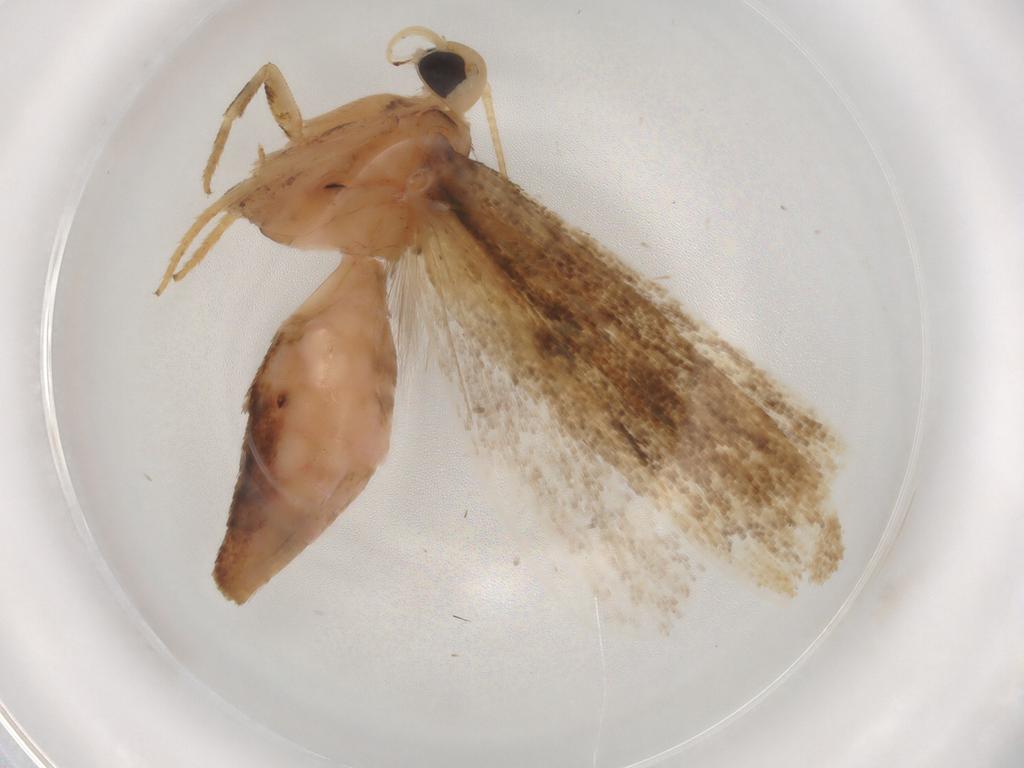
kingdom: Animalia
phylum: Arthropoda
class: Insecta
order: Lepidoptera
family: Erebidae
